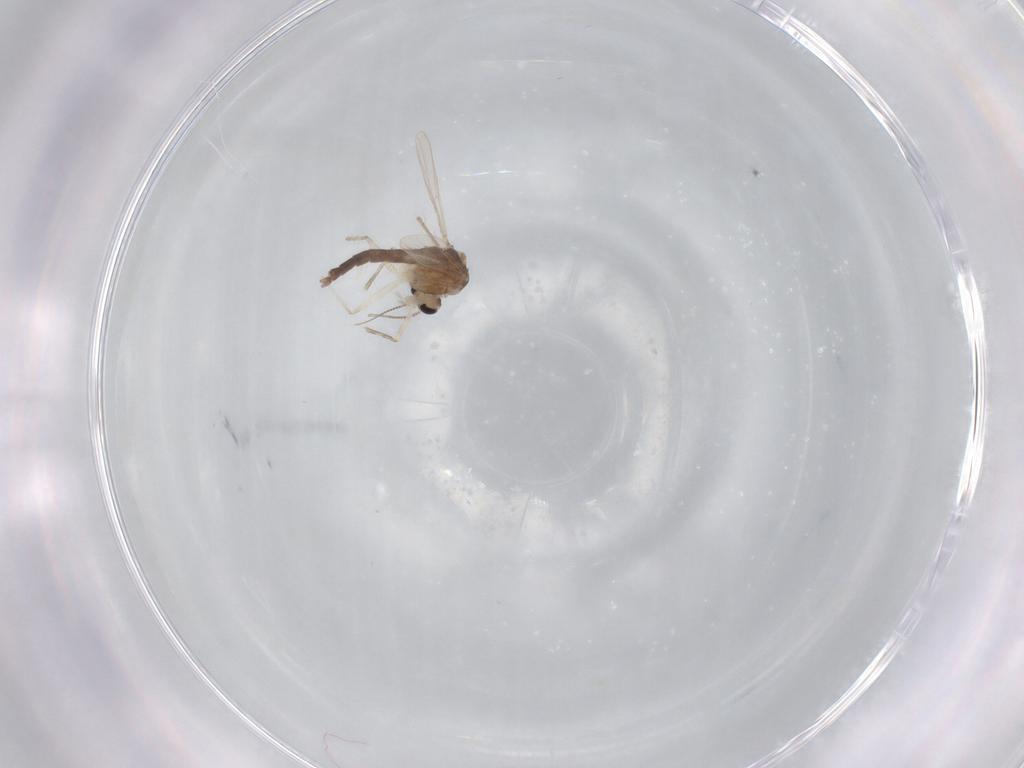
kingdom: Animalia
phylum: Arthropoda
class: Insecta
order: Diptera
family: Chironomidae
